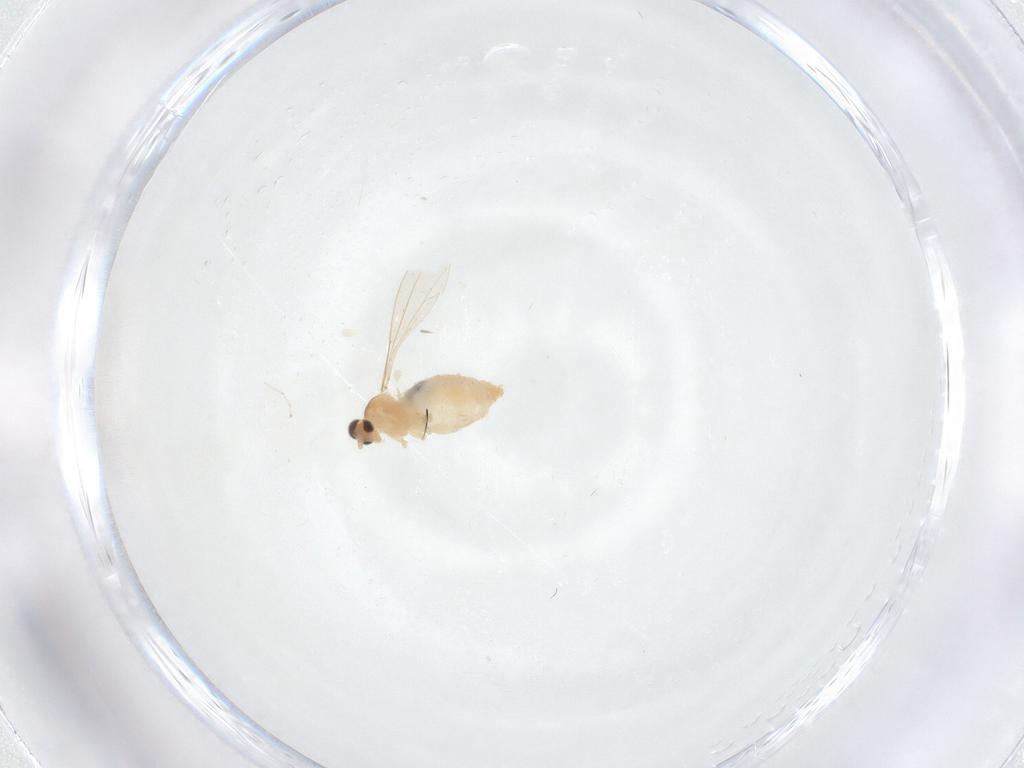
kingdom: Animalia
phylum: Arthropoda
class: Insecta
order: Diptera
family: Cecidomyiidae
